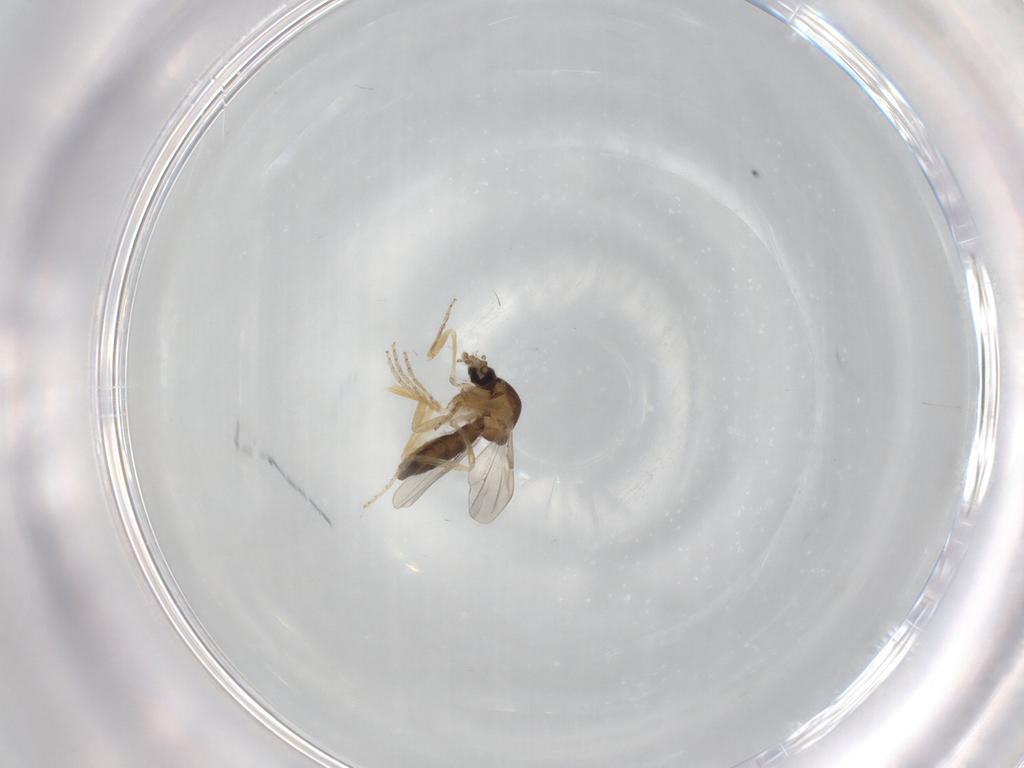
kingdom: Animalia
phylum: Arthropoda
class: Insecta
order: Diptera
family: Ceratopogonidae
